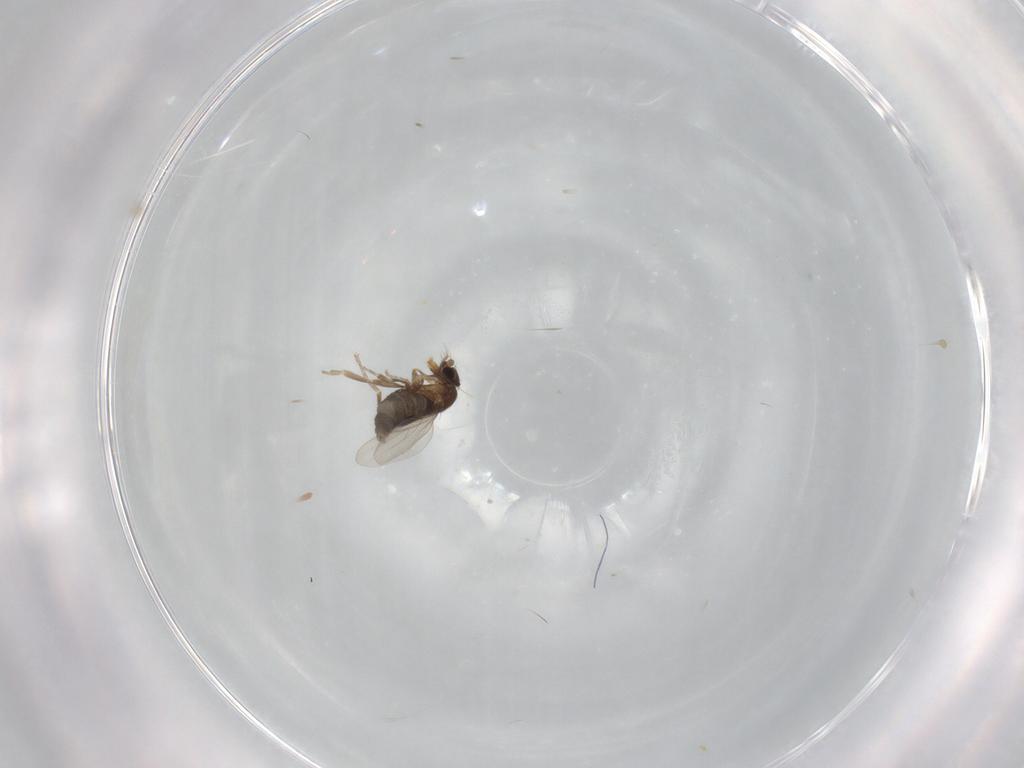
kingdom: Animalia
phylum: Arthropoda
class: Insecta
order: Diptera
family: Phoridae
